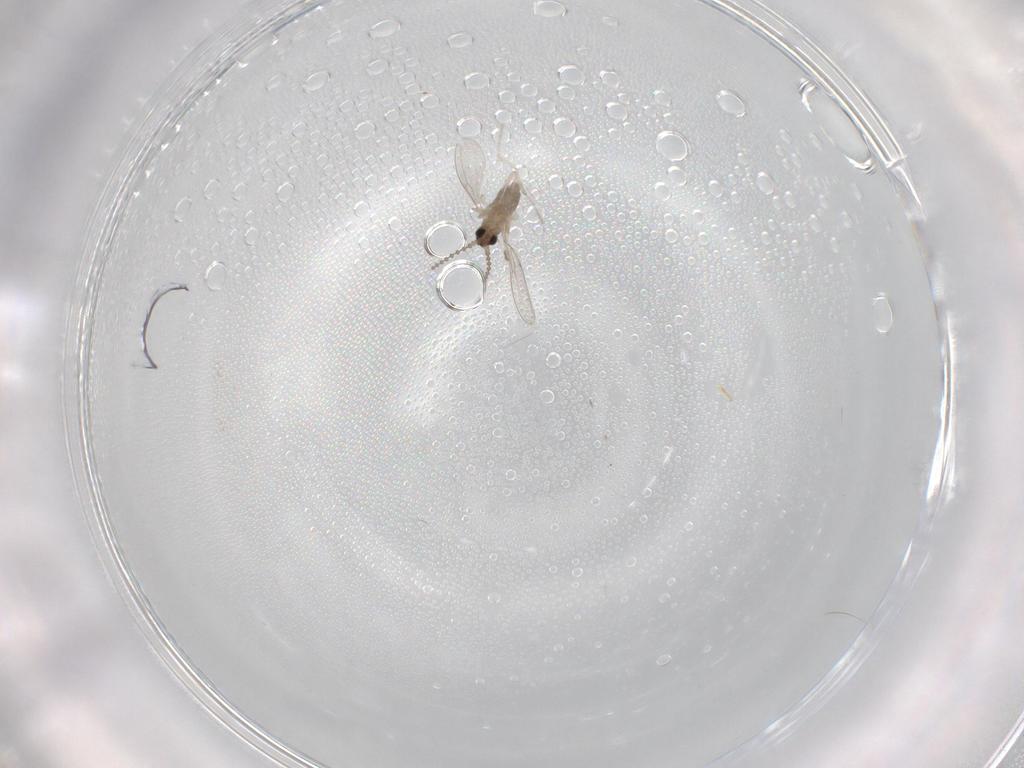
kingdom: Animalia
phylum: Arthropoda
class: Insecta
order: Diptera
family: Cecidomyiidae
